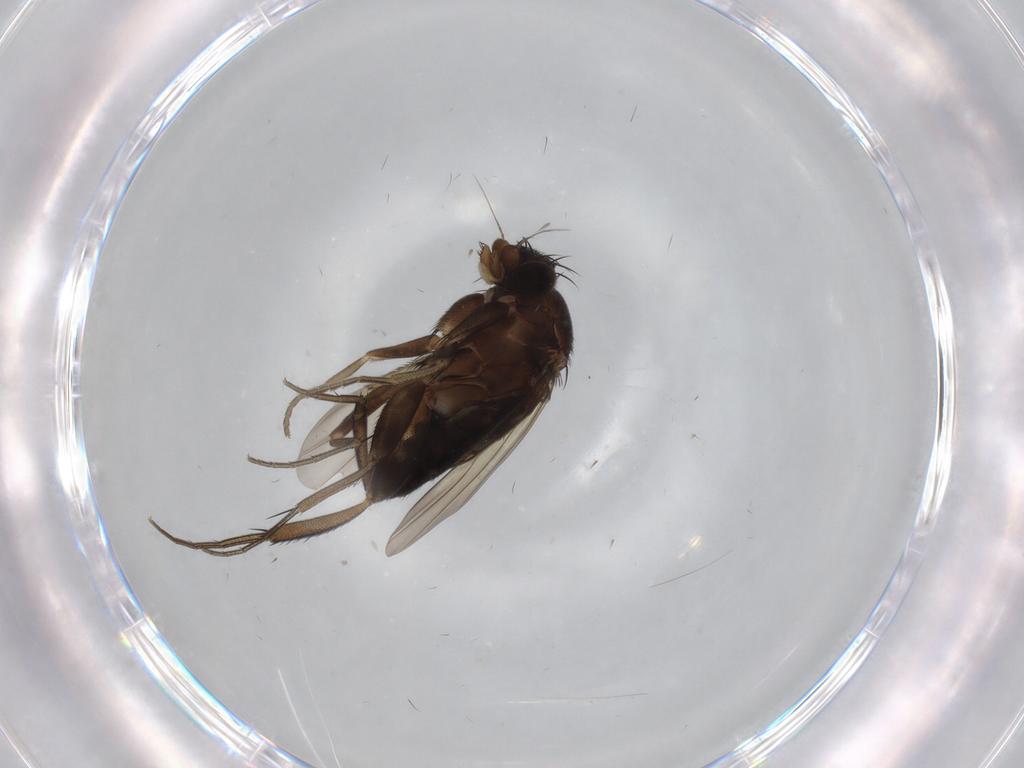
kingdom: Animalia
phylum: Arthropoda
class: Insecta
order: Diptera
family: Phoridae
